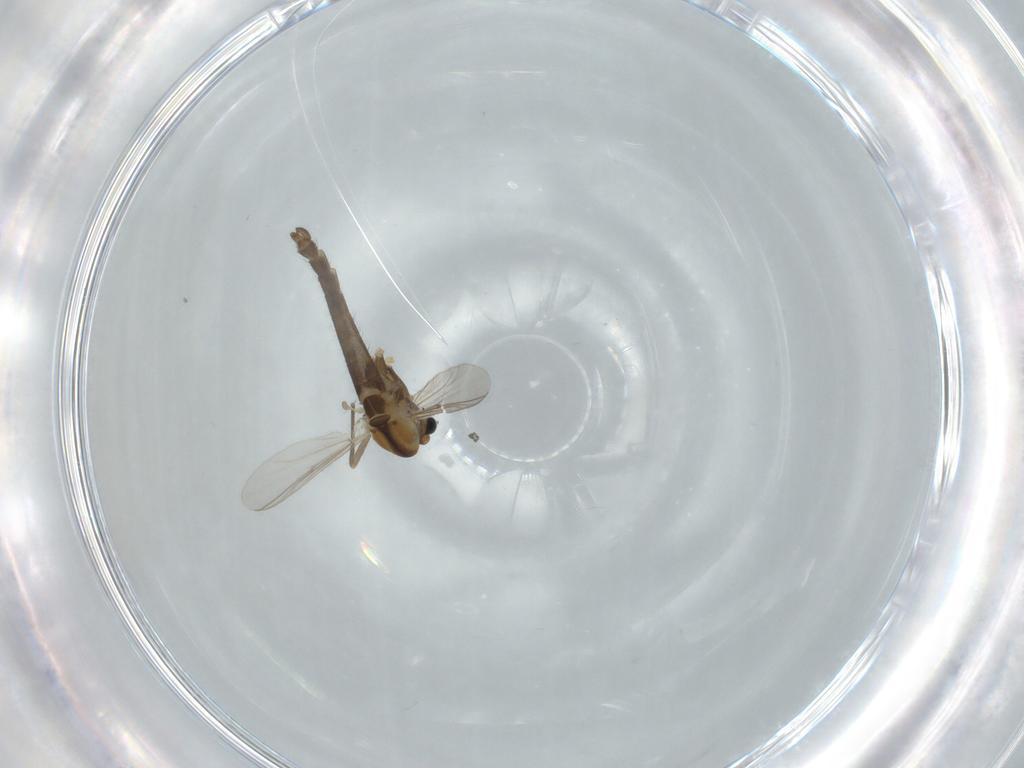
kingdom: Animalia
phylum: Arthropoda
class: Insecta
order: Diptera
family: Chironomidae
